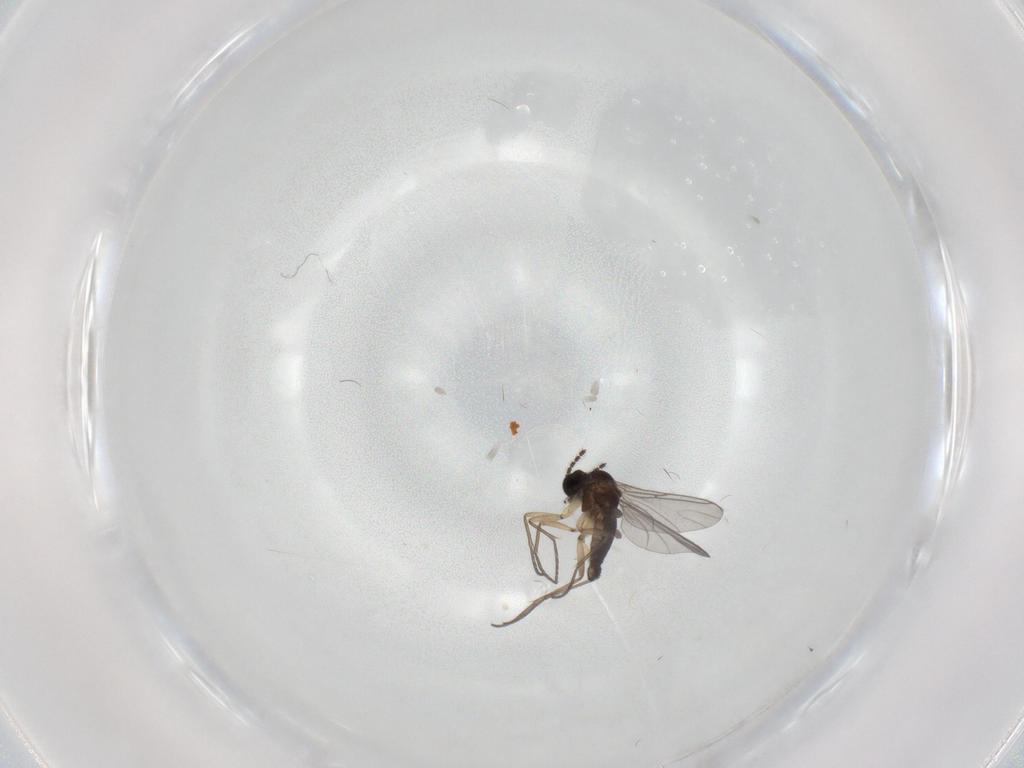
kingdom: Animalia
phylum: Arthropoda
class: Insecta
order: Diptera
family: Sciaridae
